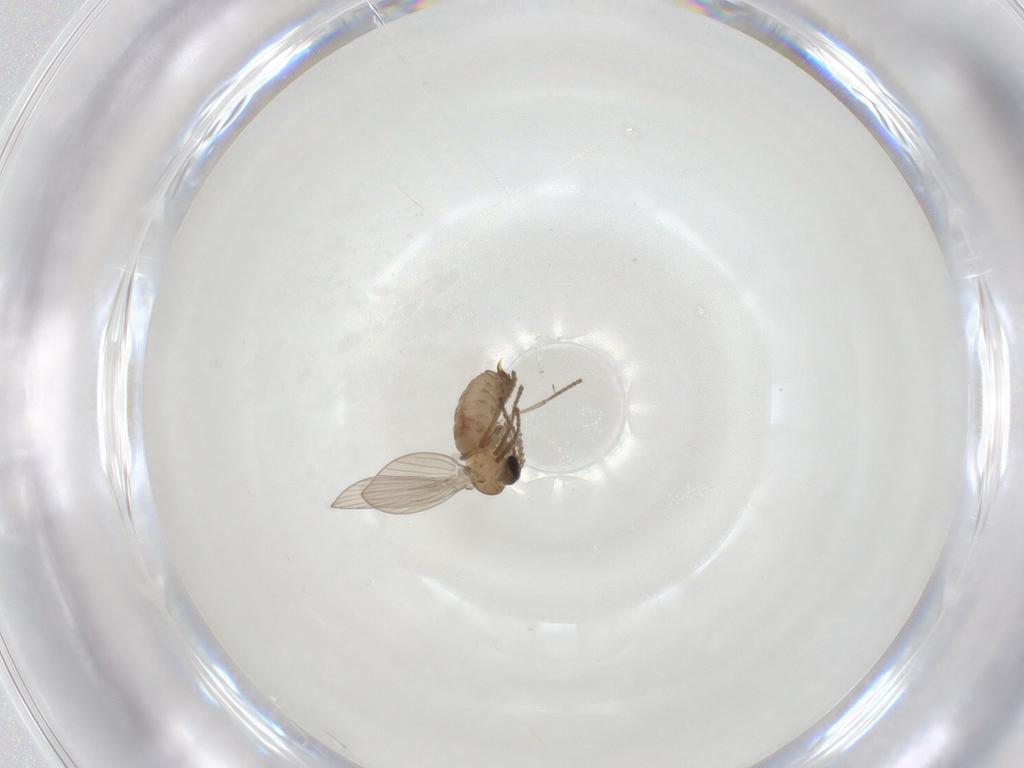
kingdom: Animalia
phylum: Arthropoda
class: Insecta
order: Diptera
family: Psychodidae
